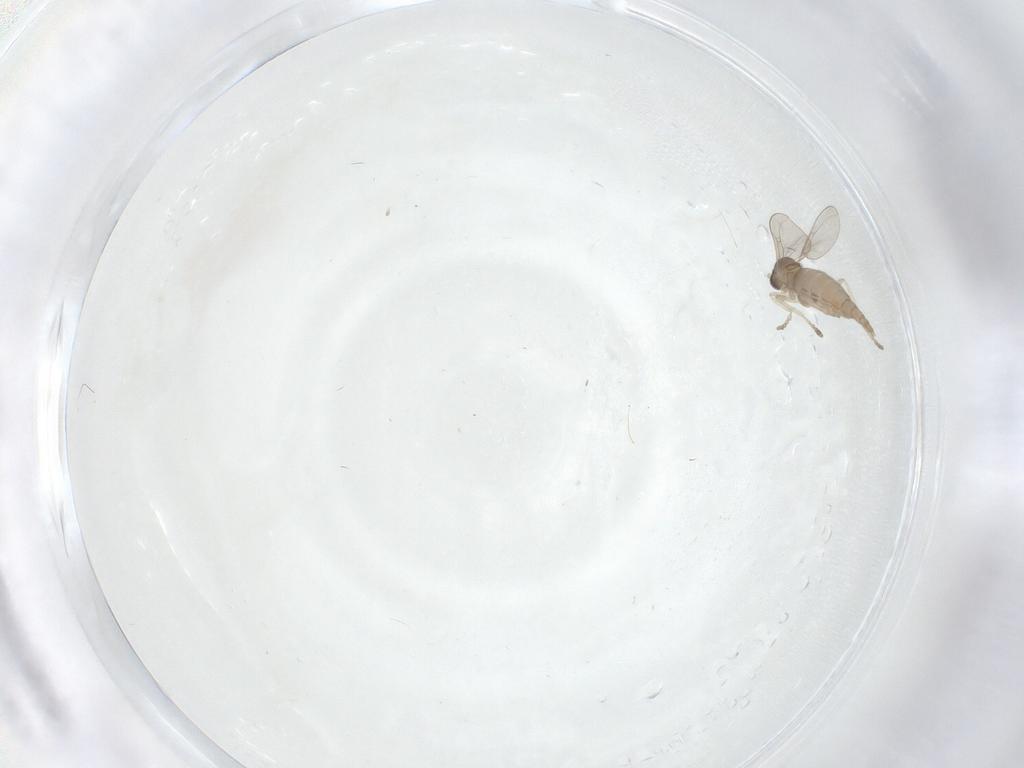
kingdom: Animalia
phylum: Arthropoda
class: Insecta
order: Diptera
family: Cecidomyiidae
